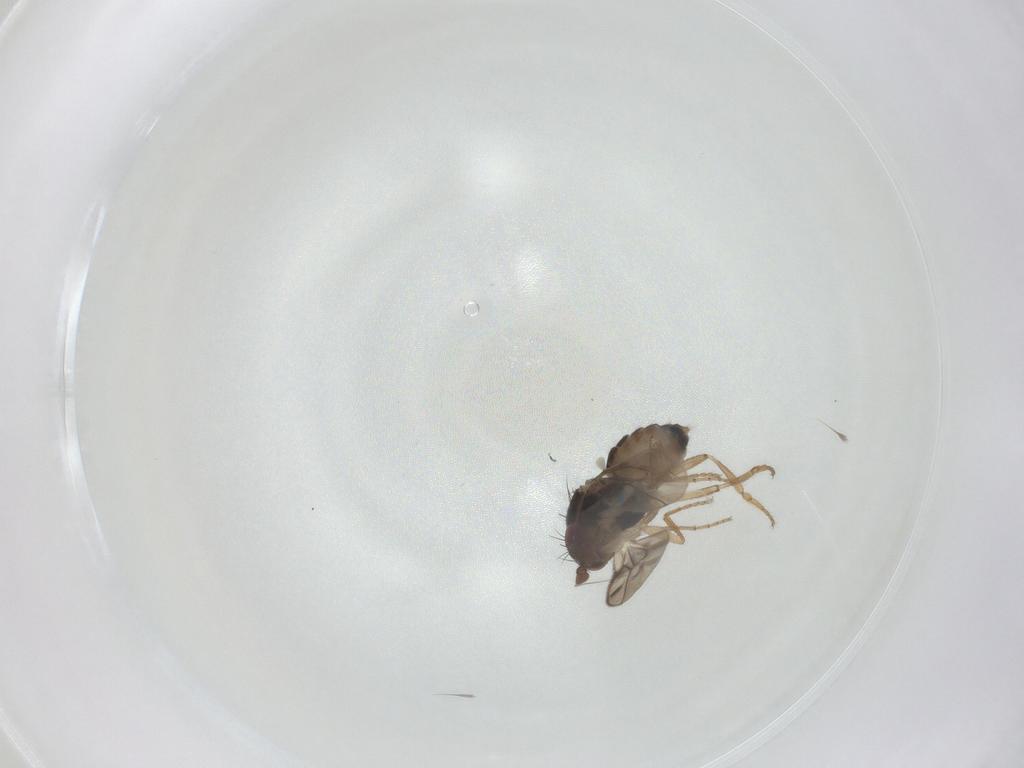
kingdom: Animalia
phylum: Arthropoda
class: Insecta
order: Diptera
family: Sphaeroceridae
